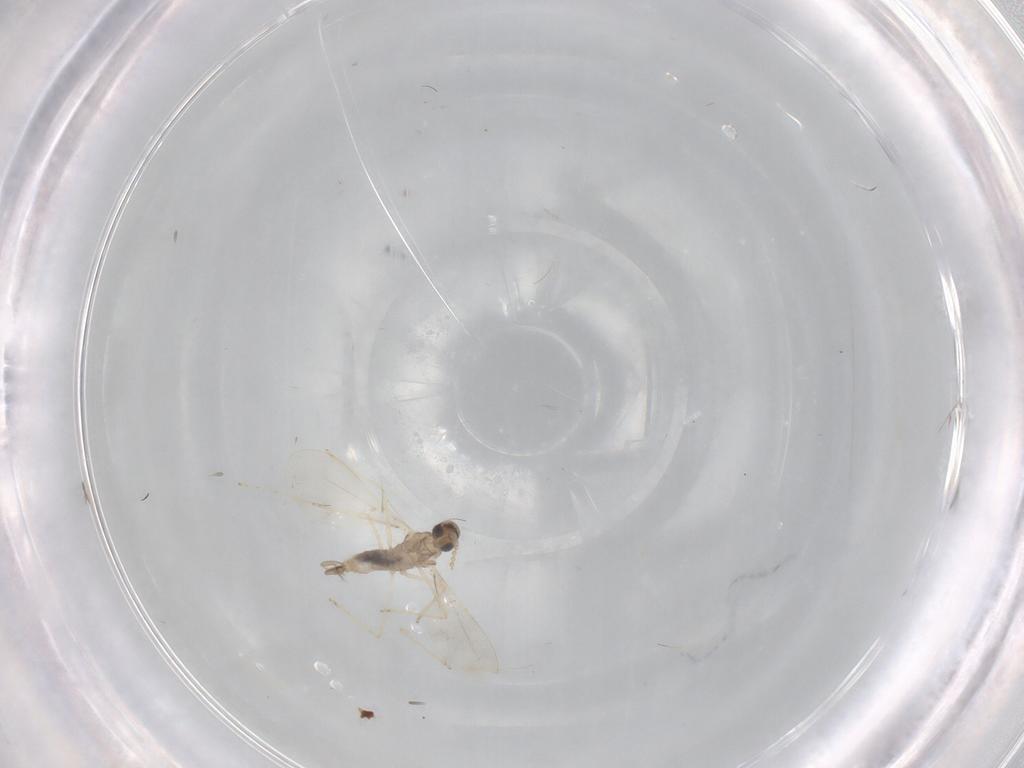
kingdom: Animalia
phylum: Arthropoda
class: Insecta
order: Diptera
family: Cecidomyiidae
